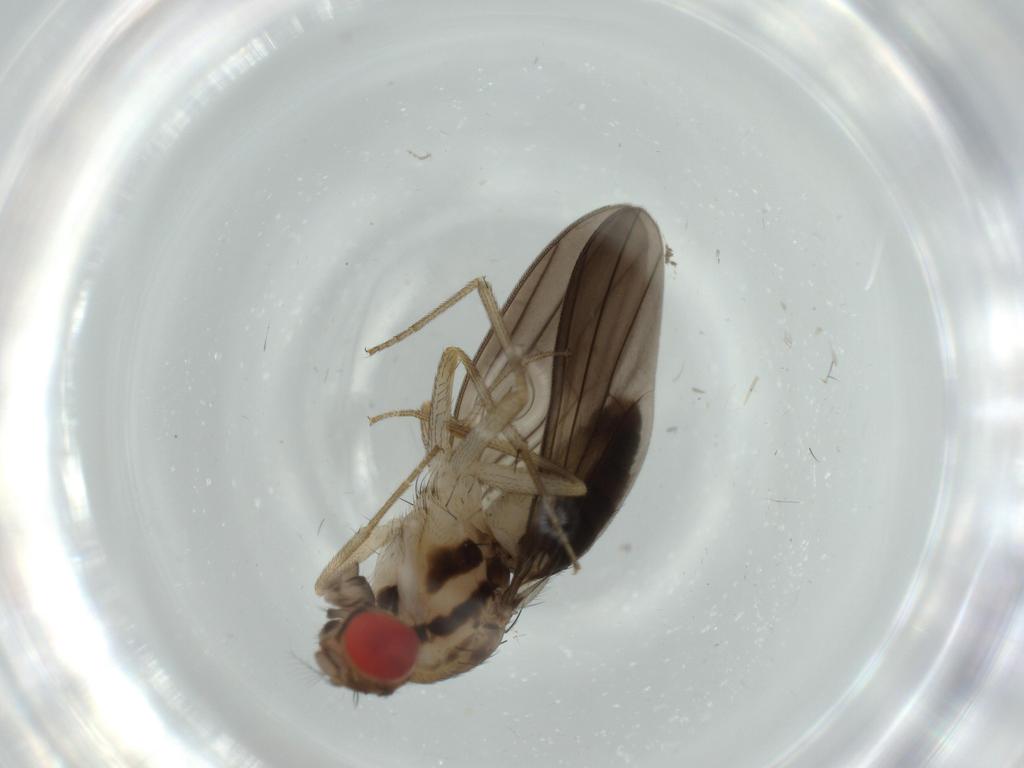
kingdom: Animalia
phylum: Arthropoda
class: Insecta
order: Diptera
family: Drosophilidae
